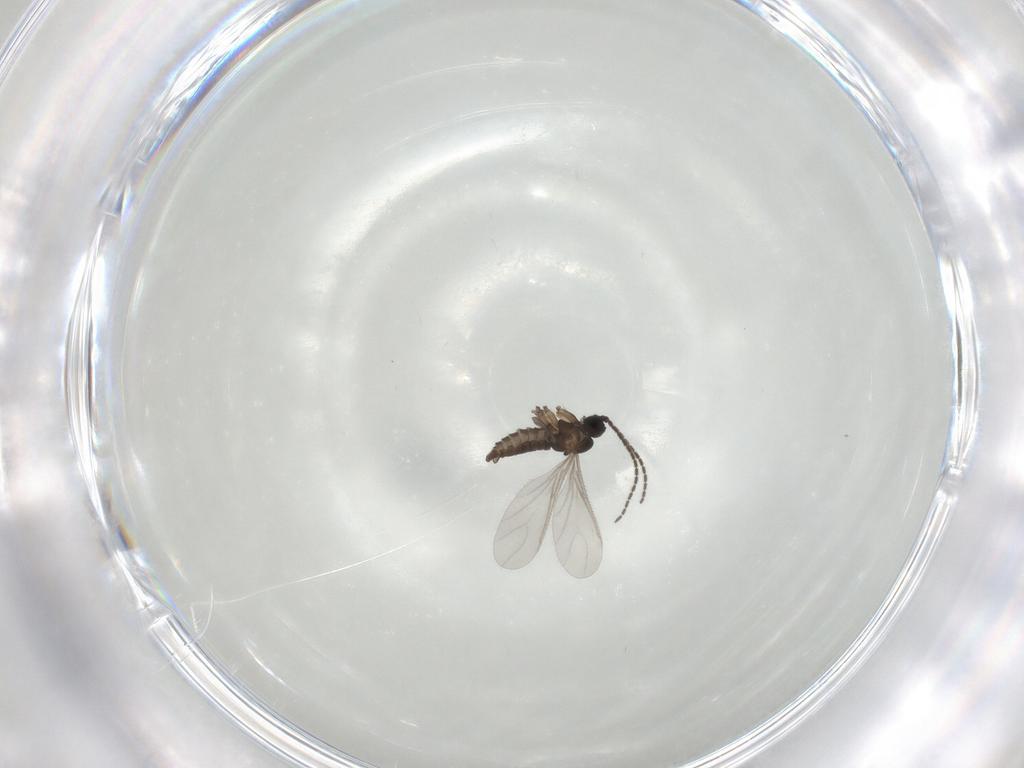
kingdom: Animalia
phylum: Arthropoda
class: Insecta
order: Diptera
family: Sciaridae
